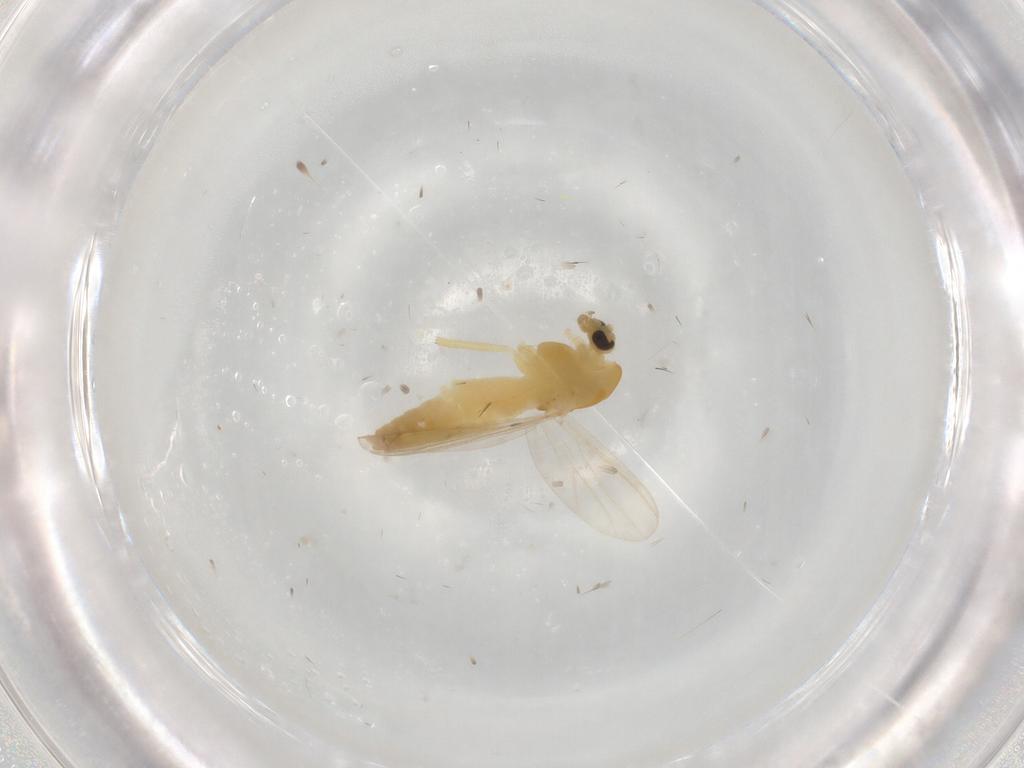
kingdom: Animalia
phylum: Arthropoda
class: Insecta
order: Diptera
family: Chironomidae
